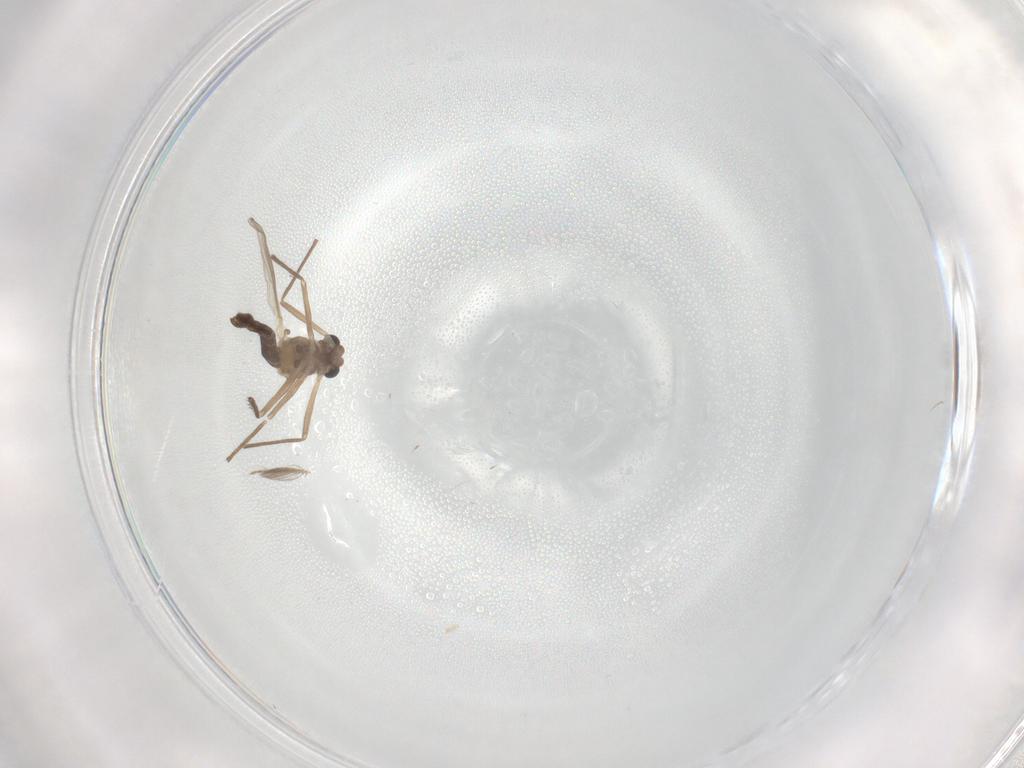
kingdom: Animalia
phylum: Arthropoda
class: Insecta
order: Diptera
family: Chironomidae
